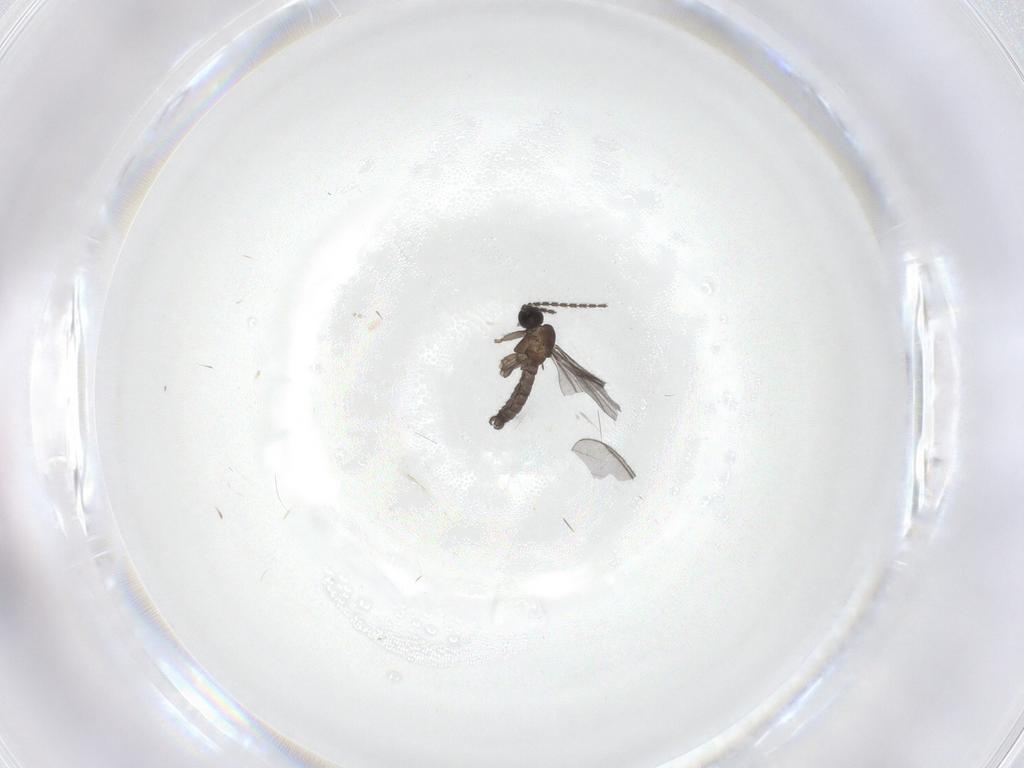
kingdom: Animalia
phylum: Arthropoda
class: Insecta
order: Diptera
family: Sciaridae
